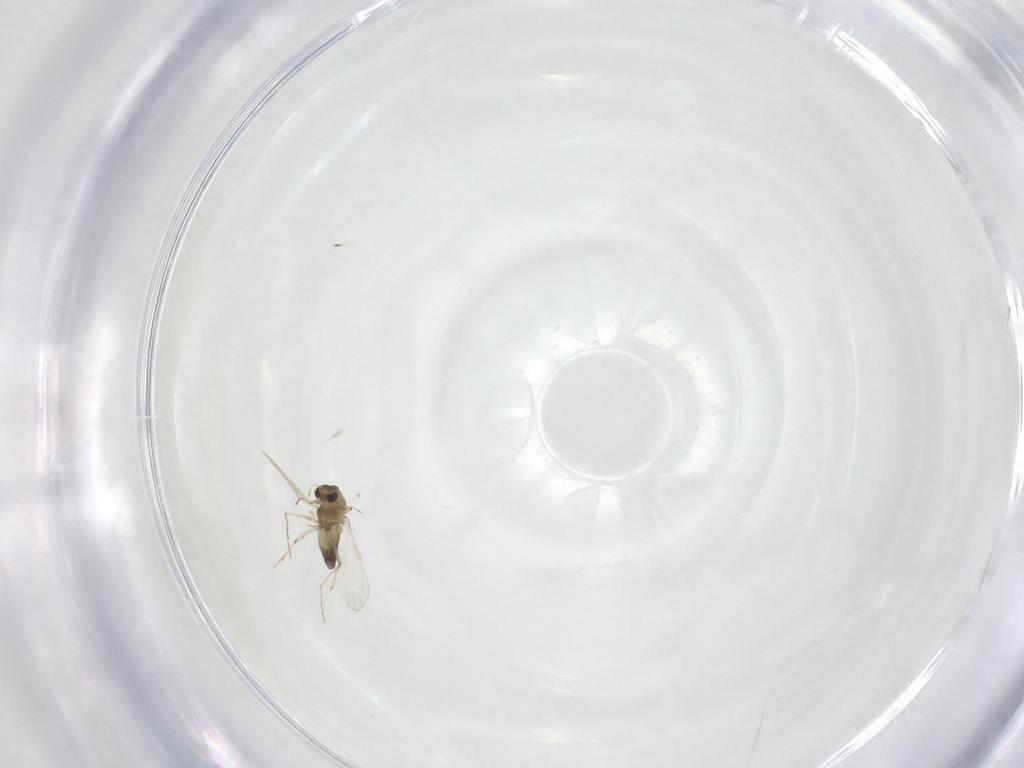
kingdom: Animalia
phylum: Arthropoda
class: Insecta
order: Diptera
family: Chironomidae
